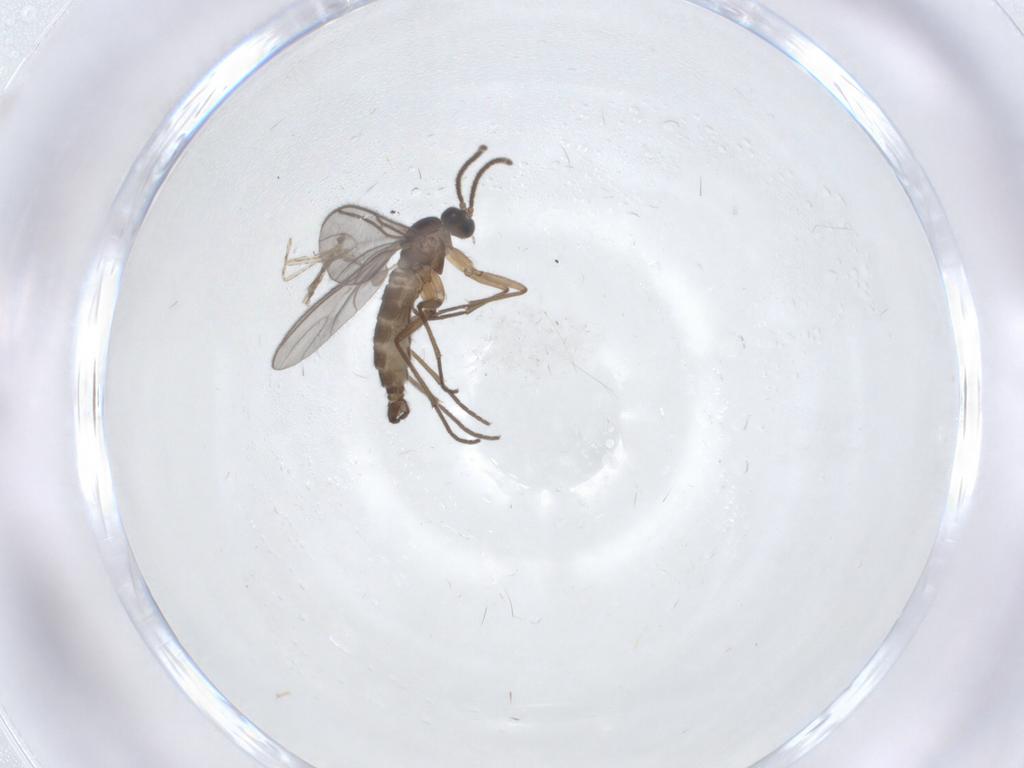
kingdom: Animalia
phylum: Arthropoda
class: Insecta
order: Diptera
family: Sciaridae
